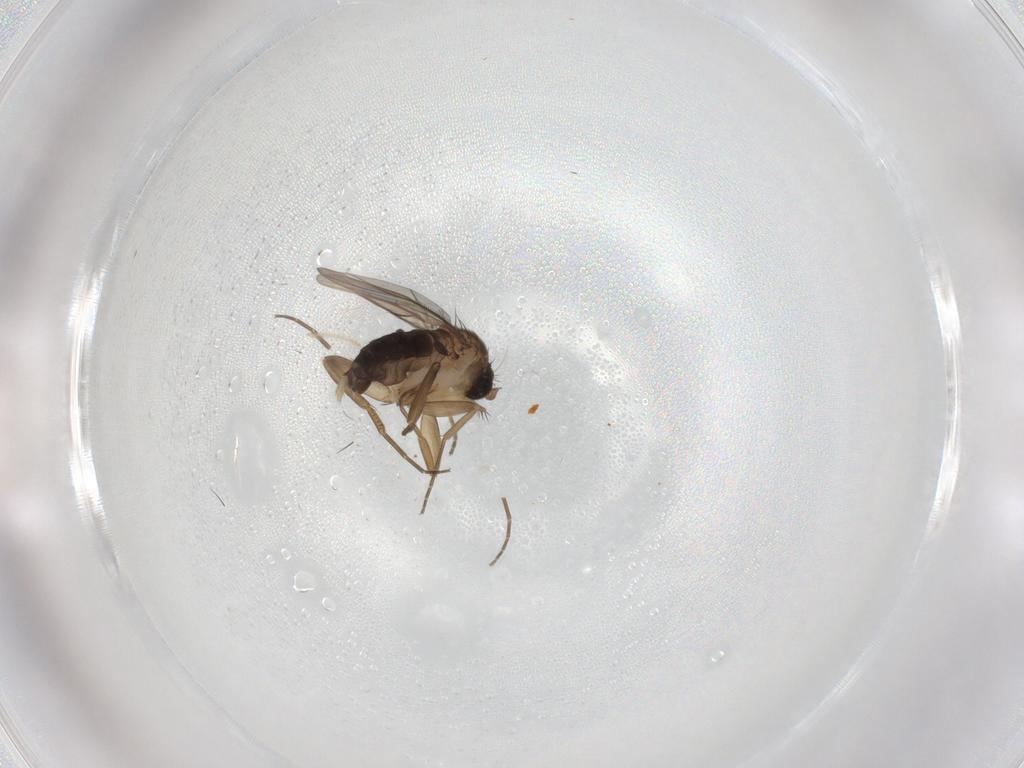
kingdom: Animalia
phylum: Arthropoda
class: Insecta
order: Diptera
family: Phoridae
